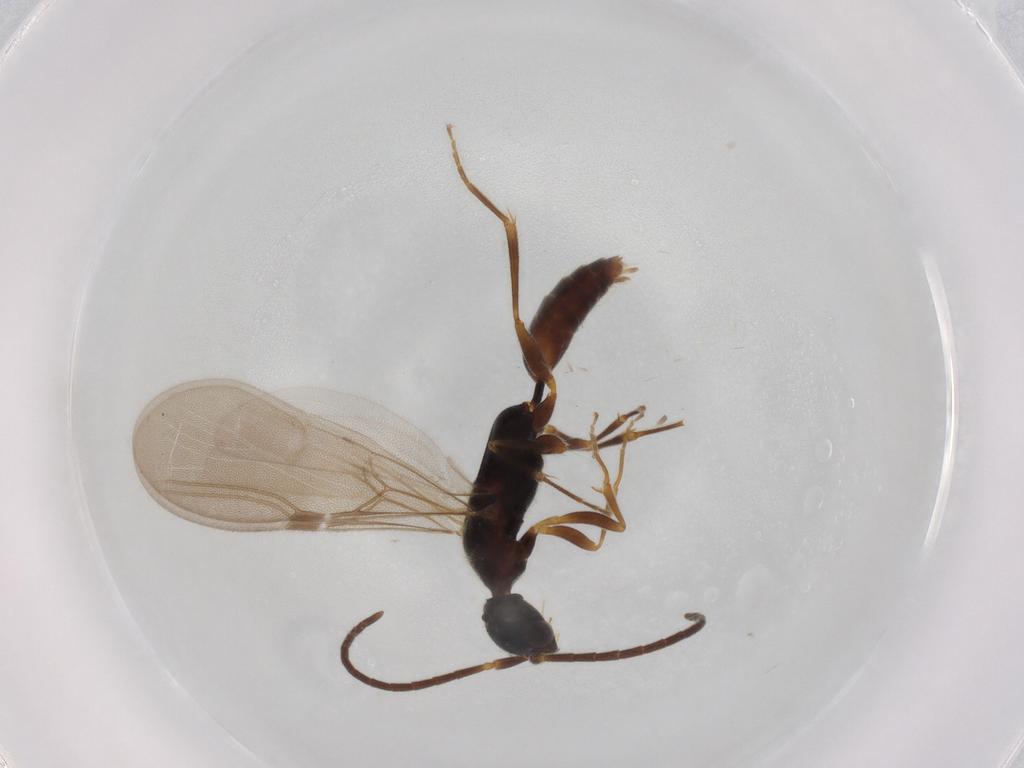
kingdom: Animalia
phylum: Arthropoda
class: Insecta
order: Hymenoptera
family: Bethylidae
